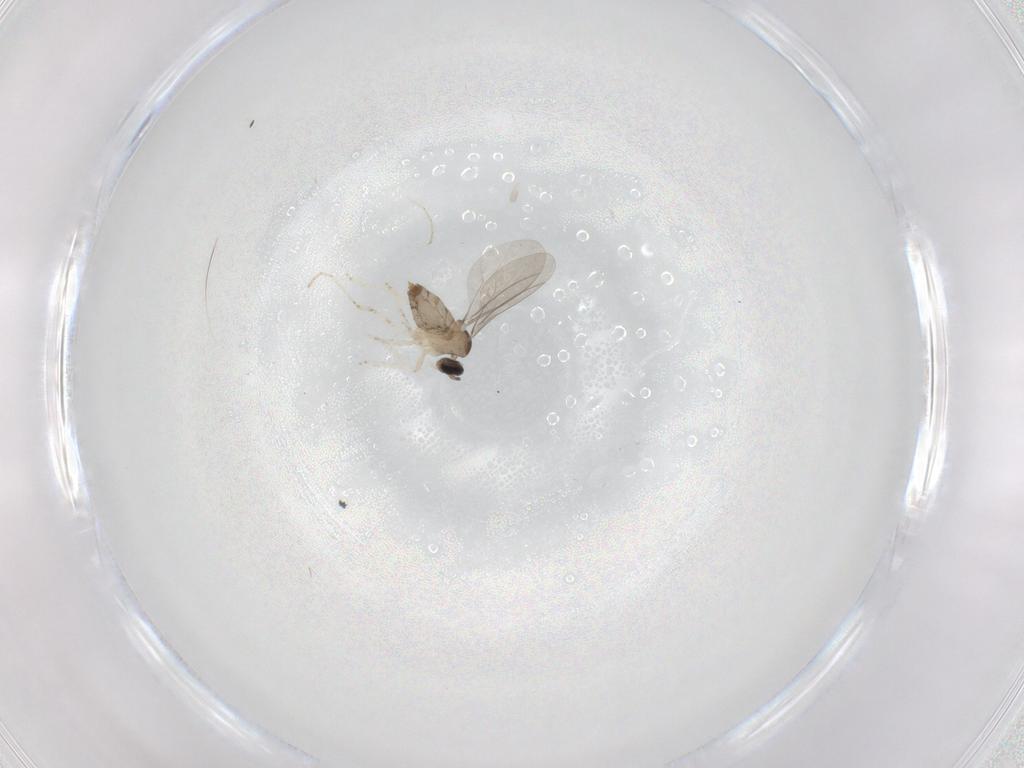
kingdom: Animalia
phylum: Arthropoda
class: Insecta
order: Diptera
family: Cecidomyiidae
